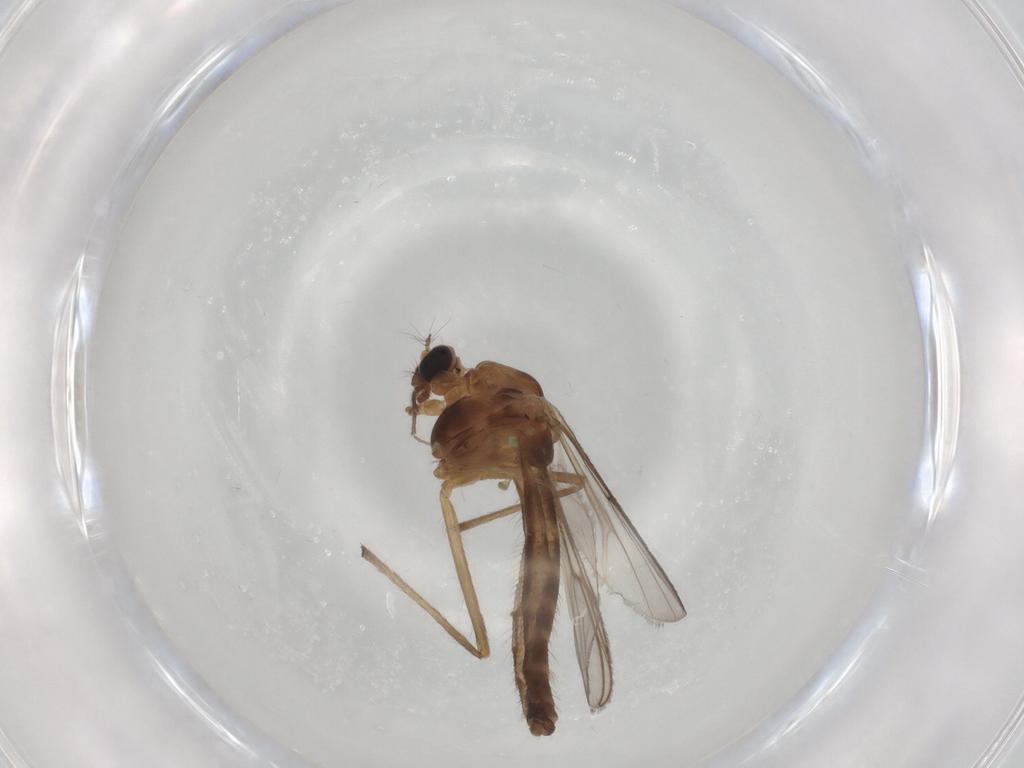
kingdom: Animalia
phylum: Arthropoda
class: Insecta
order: Diptera
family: Chironomidae
